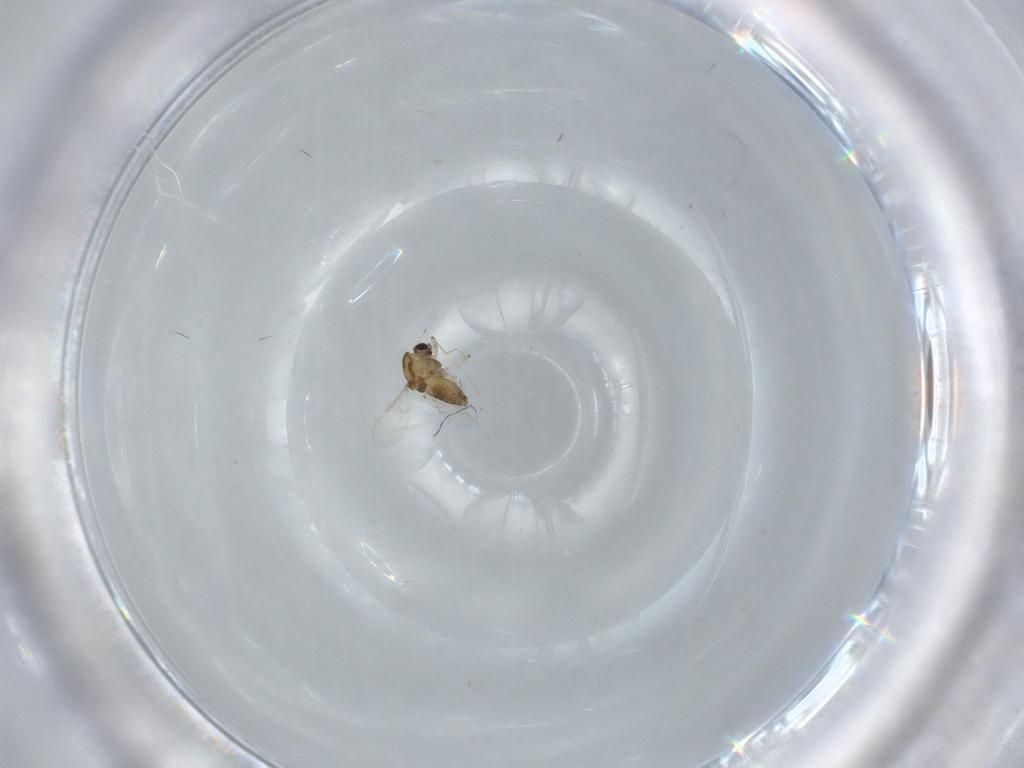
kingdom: Animalia
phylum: Arthropoda
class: Insecta
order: Diptera
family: Chironomidae
